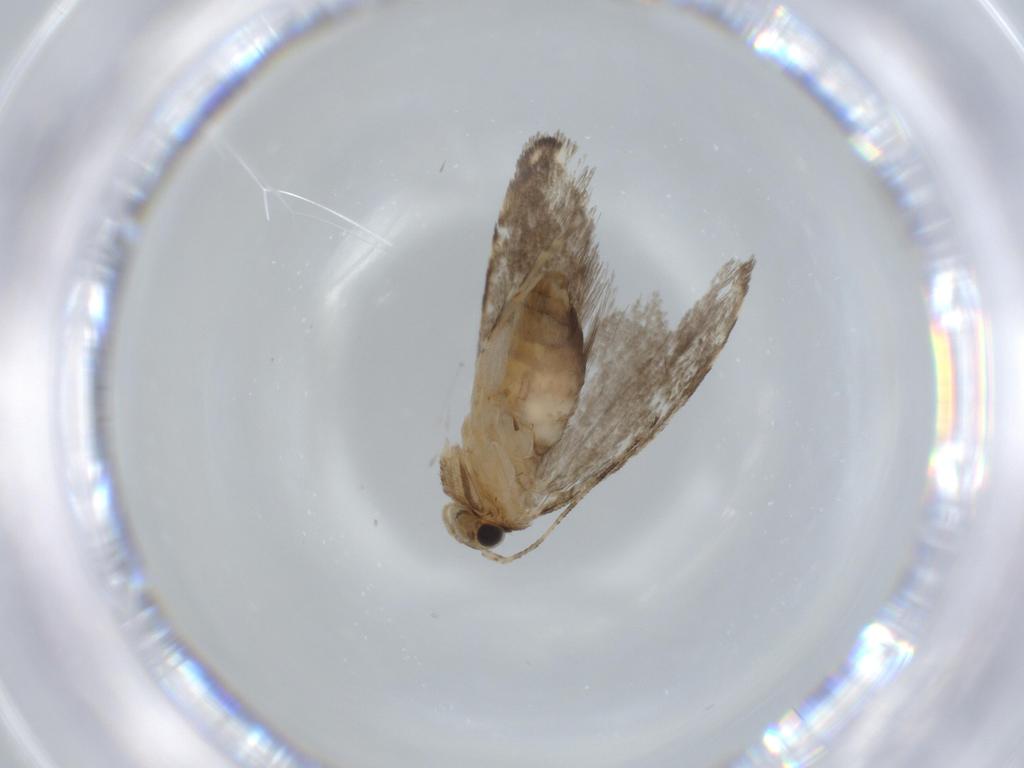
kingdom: Animalia
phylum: Arthropoda
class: Insecta
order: Lepidoptera
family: Tineidae
